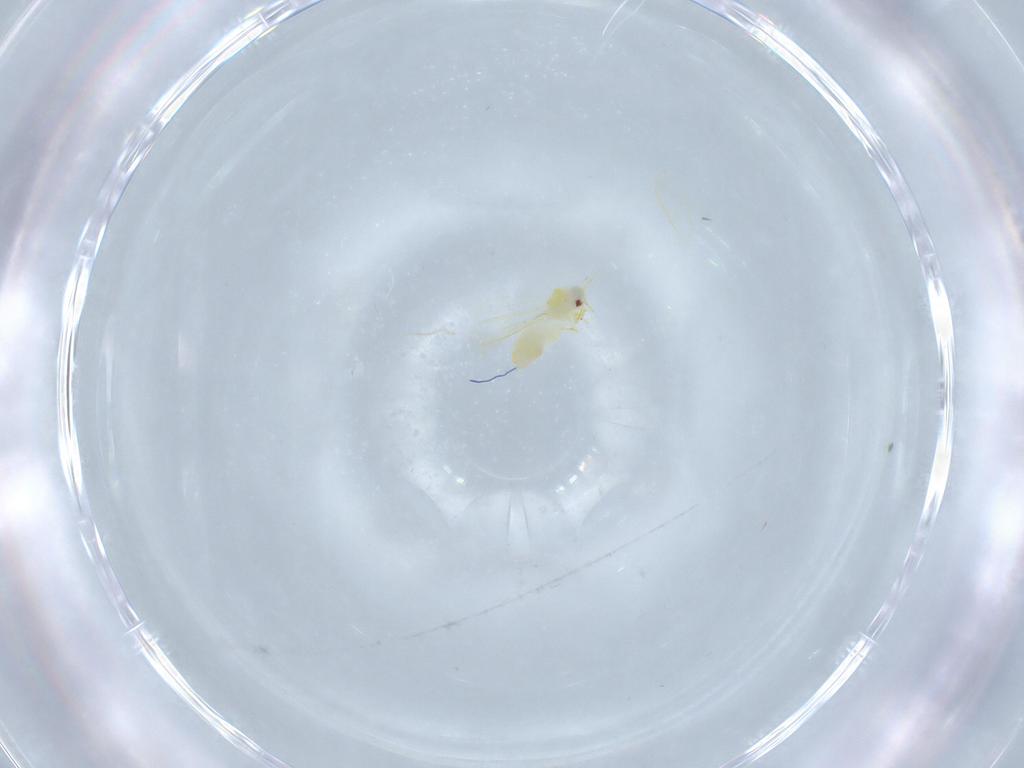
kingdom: Animalia
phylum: Arthropoda
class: Insecta
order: Hemiptera
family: Aleyrodidae
